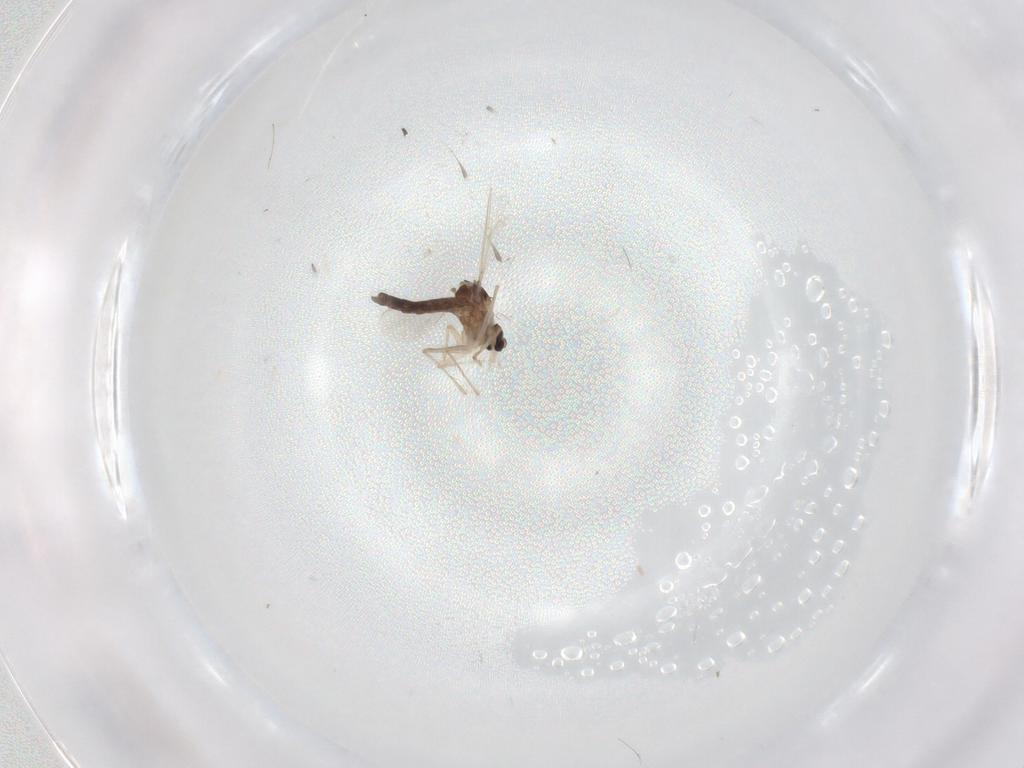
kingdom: Animalia
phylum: Arthropoda
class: Insecta
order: Diptera
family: Chironomidae
